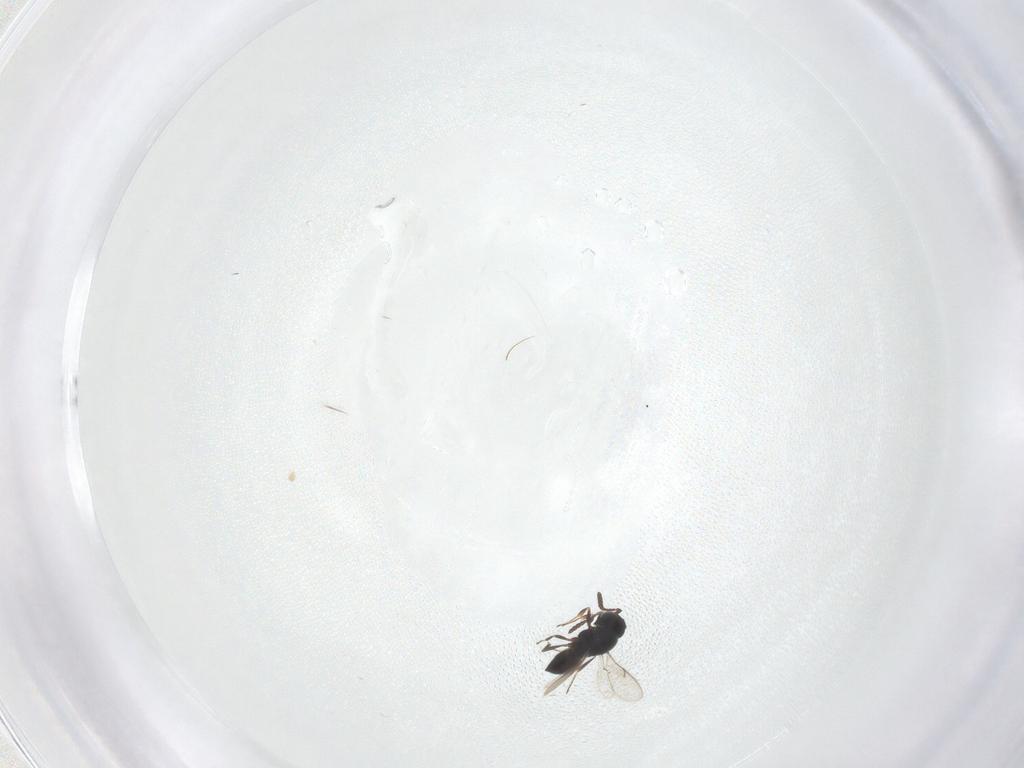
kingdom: Animalia
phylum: Arthropoda
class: Insecta
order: Hymenoptera
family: Scelionidae
